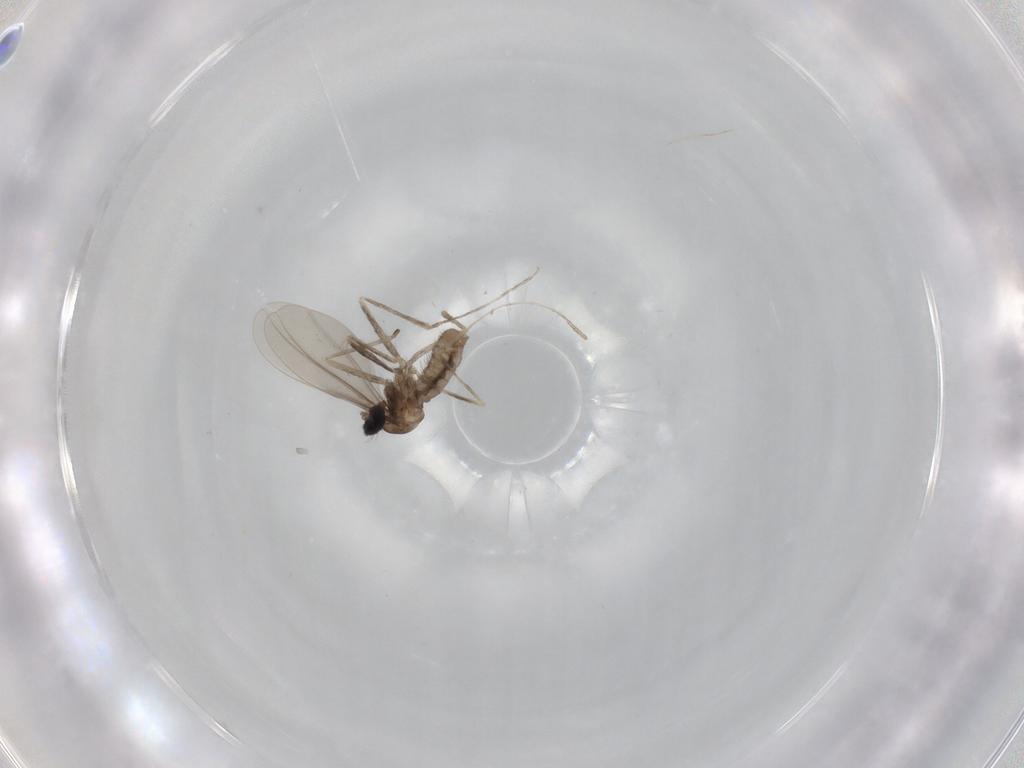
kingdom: Animalia
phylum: Arthropoda
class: Insecta
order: Diptera
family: Cecidomyiidae
